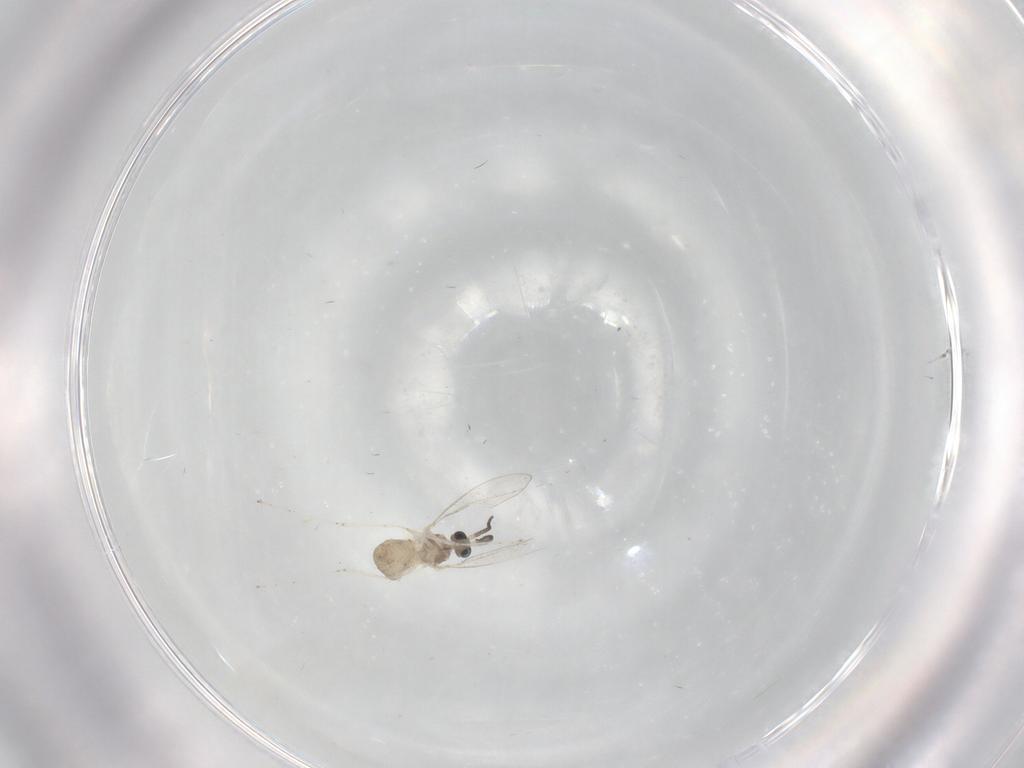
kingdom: Animalia
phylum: Arthropoda
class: Insecta
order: Diptera
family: Cecidomyiidae
